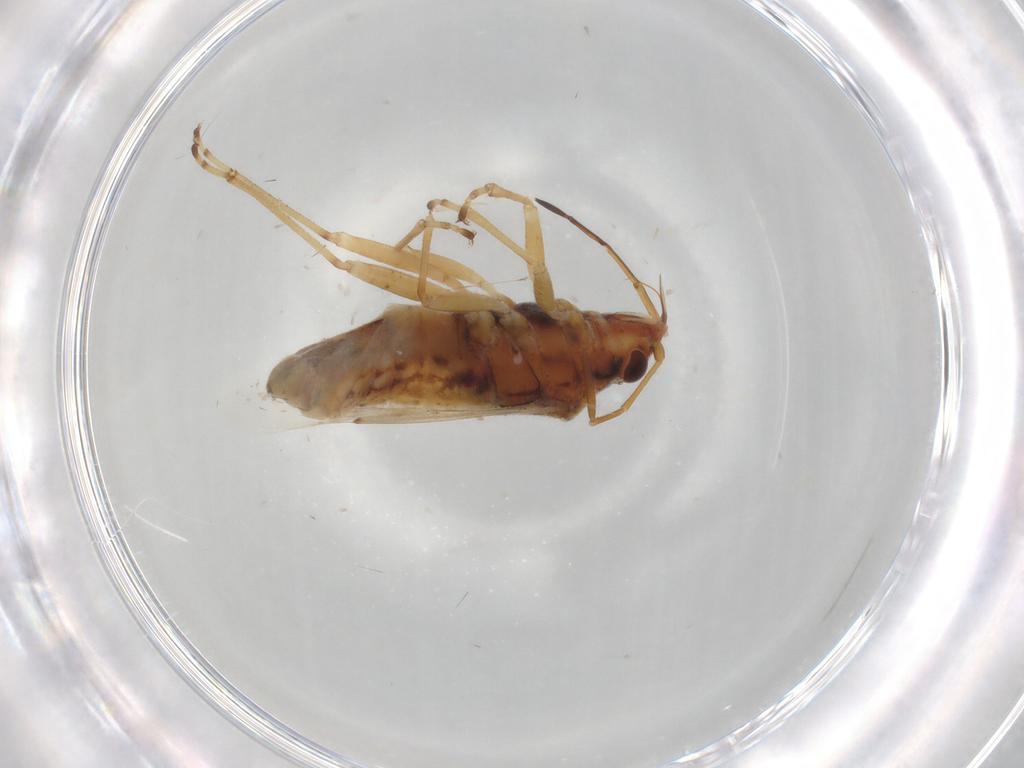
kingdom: Animalia
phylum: Arthropoda
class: Insecta
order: Hemiptera
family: Lygaeidae
